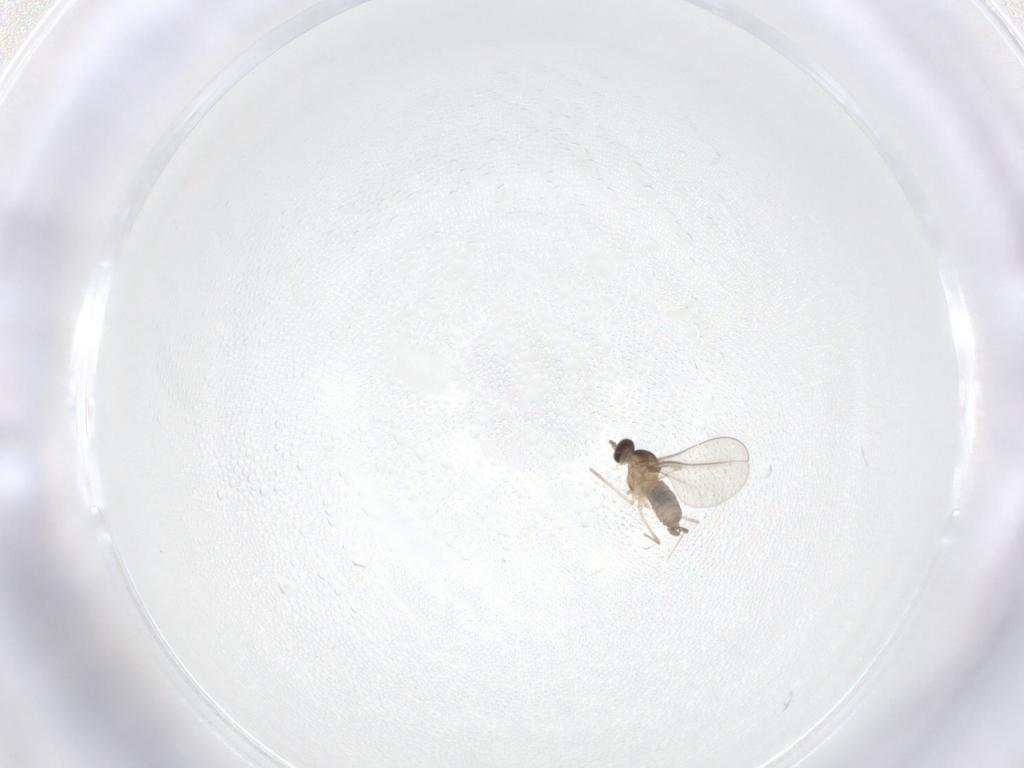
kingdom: Animalia
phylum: Arthropoda
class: Insecta
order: Diptera
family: Cecidomyiidae
